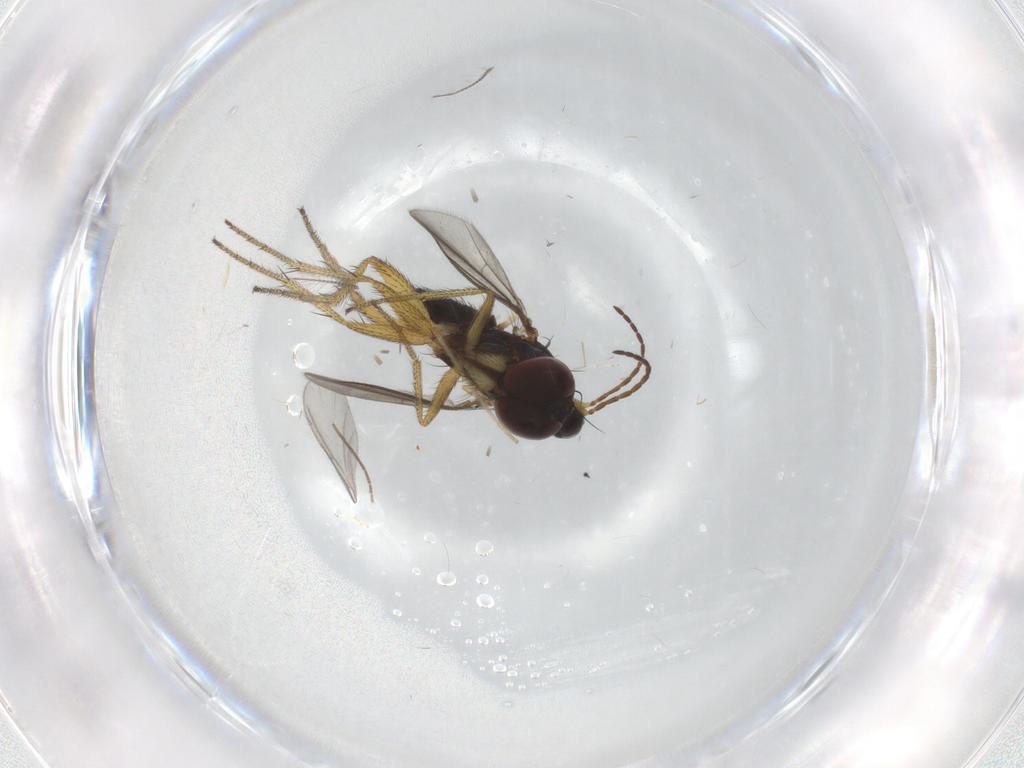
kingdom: Animalia
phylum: Arthropoda
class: Insecta
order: Diptera
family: Chironomidae
